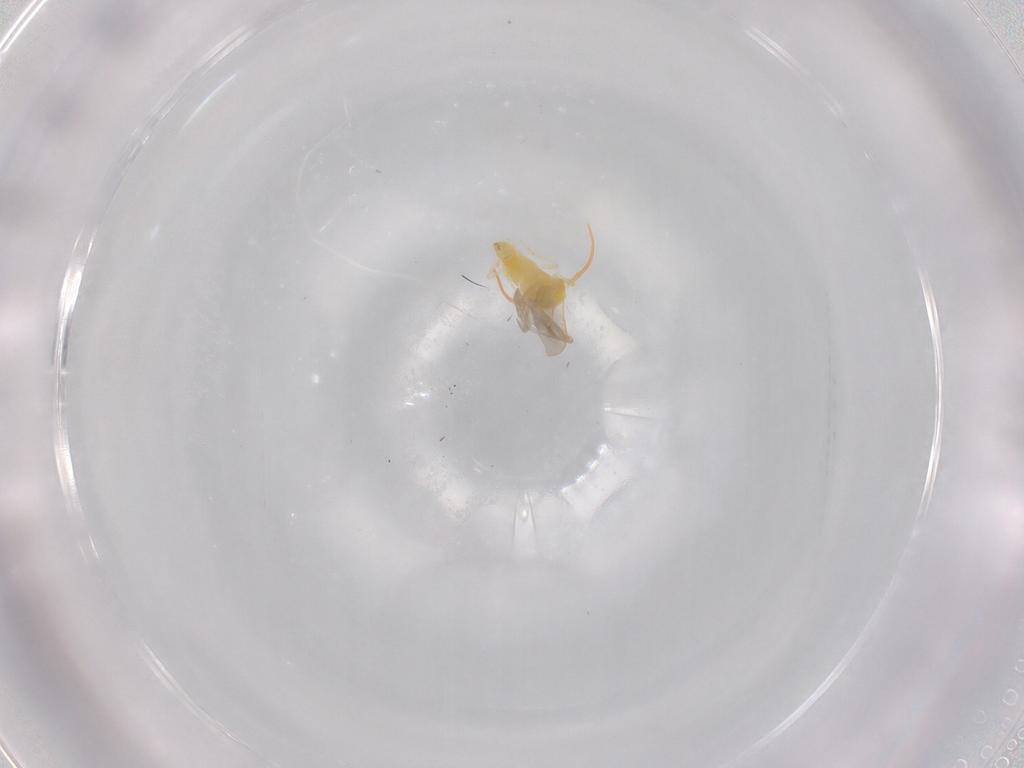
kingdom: Animalia
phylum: Arthropoda
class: Insecta
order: Hemiptera
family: Aleyrodidae
